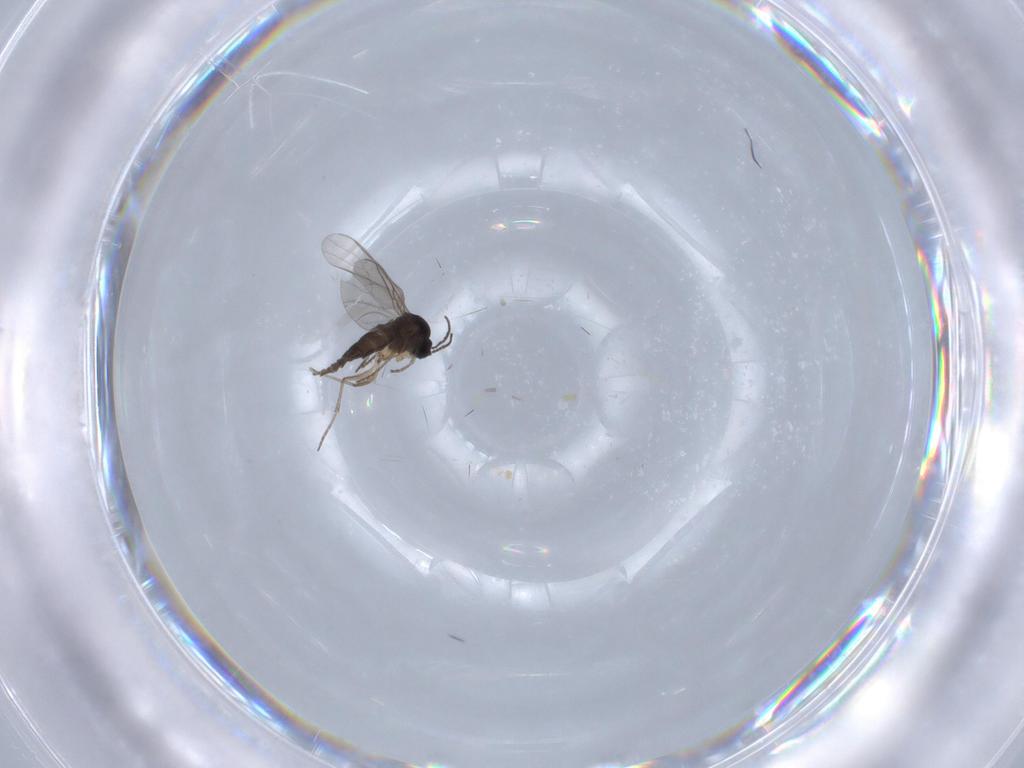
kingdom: Animalia
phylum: Arthropoda
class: Insecta
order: Diptera
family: Sciaridae
